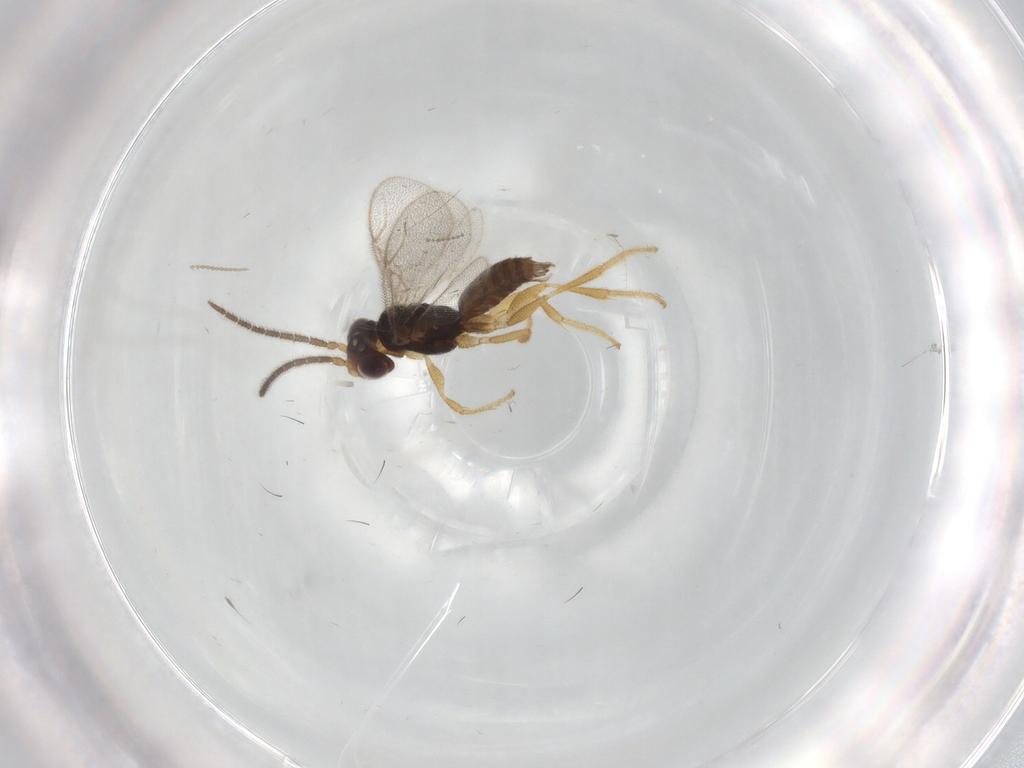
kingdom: Animalia
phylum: Arthropoda
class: Insecta
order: Hymenoptera
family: Dryinidae
